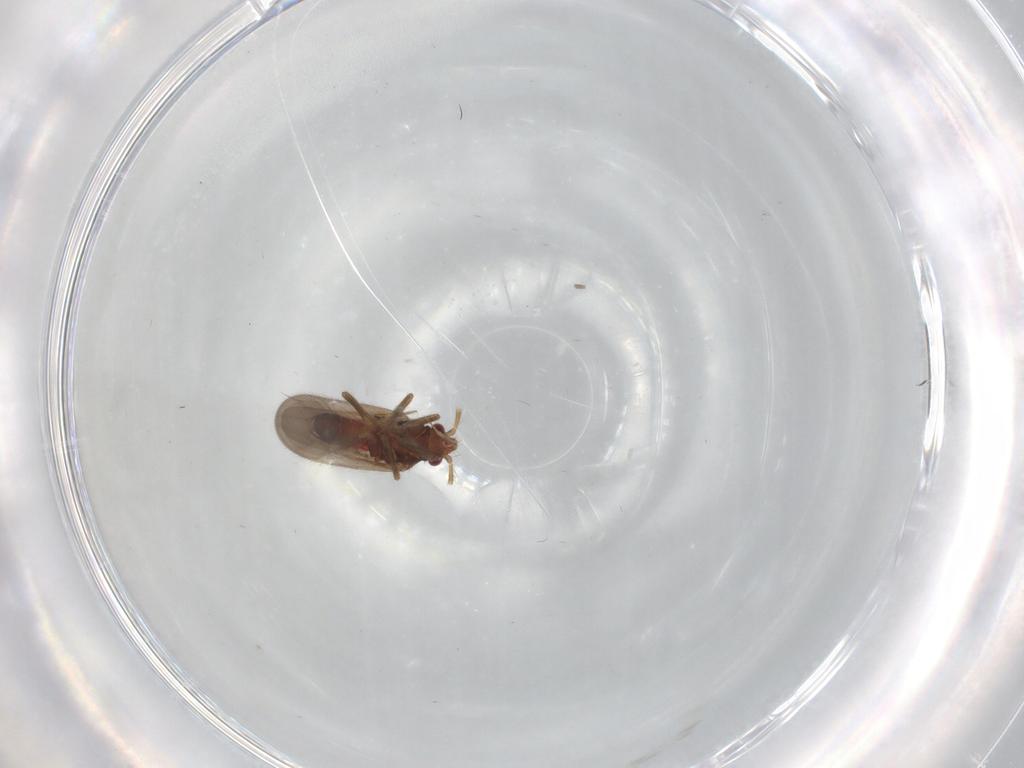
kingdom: Animalia
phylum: Arthropoda
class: Insecta
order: Hemiptera
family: Ceratocombidae
